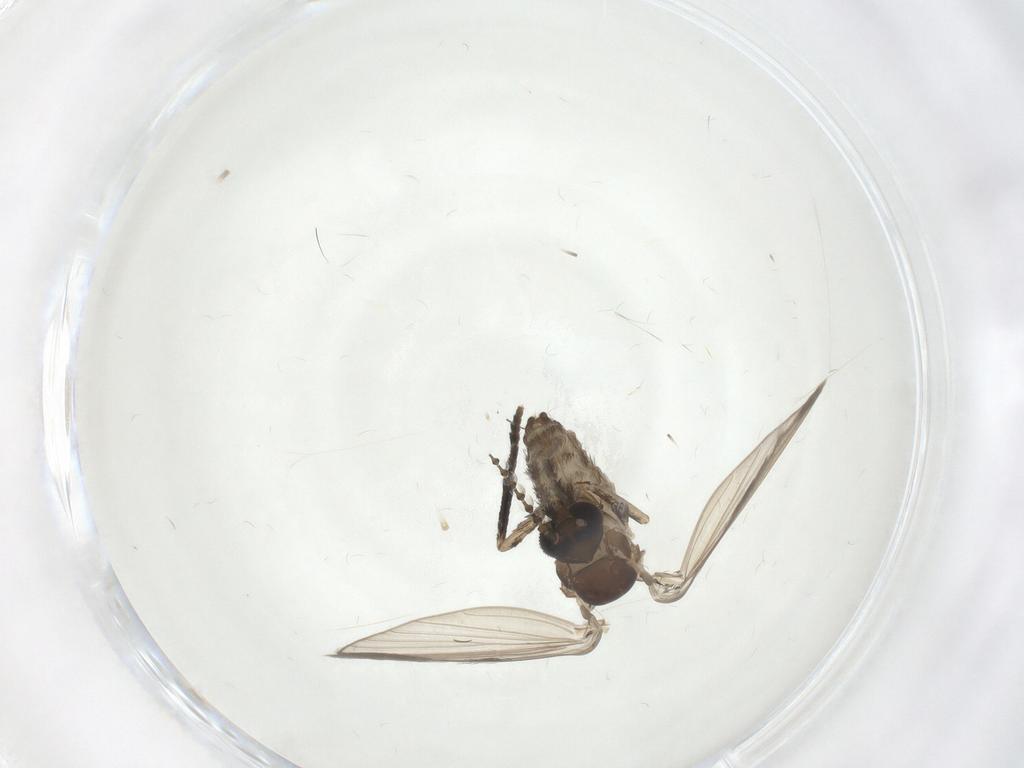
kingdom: Animalia
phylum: Arthropoda
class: Insecta
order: Diptera
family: Psychodidae
